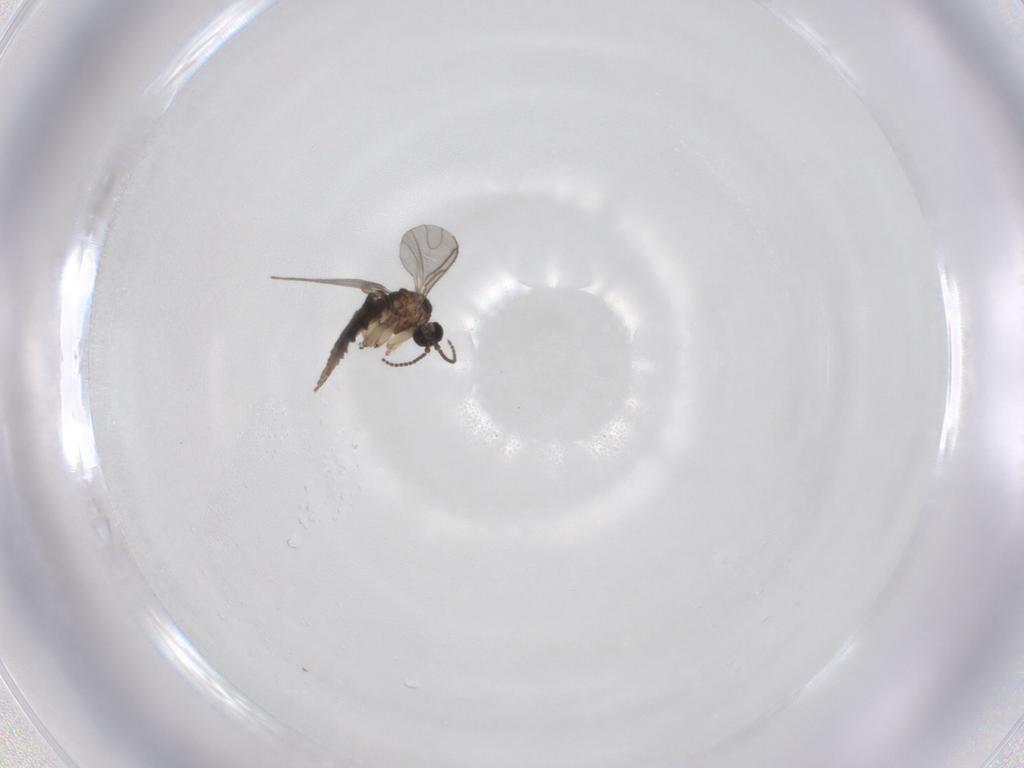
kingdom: Animalia
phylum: Arthropoda
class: Insecta
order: Diptera
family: Sciaridae
